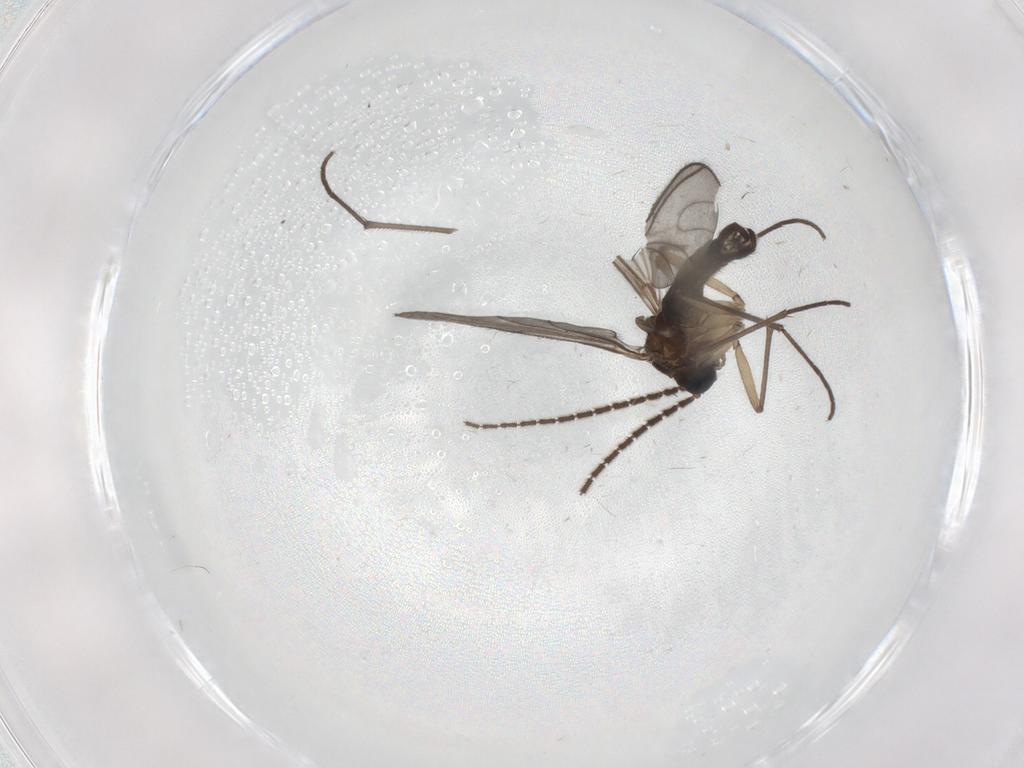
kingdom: Animalia
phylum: Arthropoda
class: Insecta
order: Diptera
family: Sciaridae
